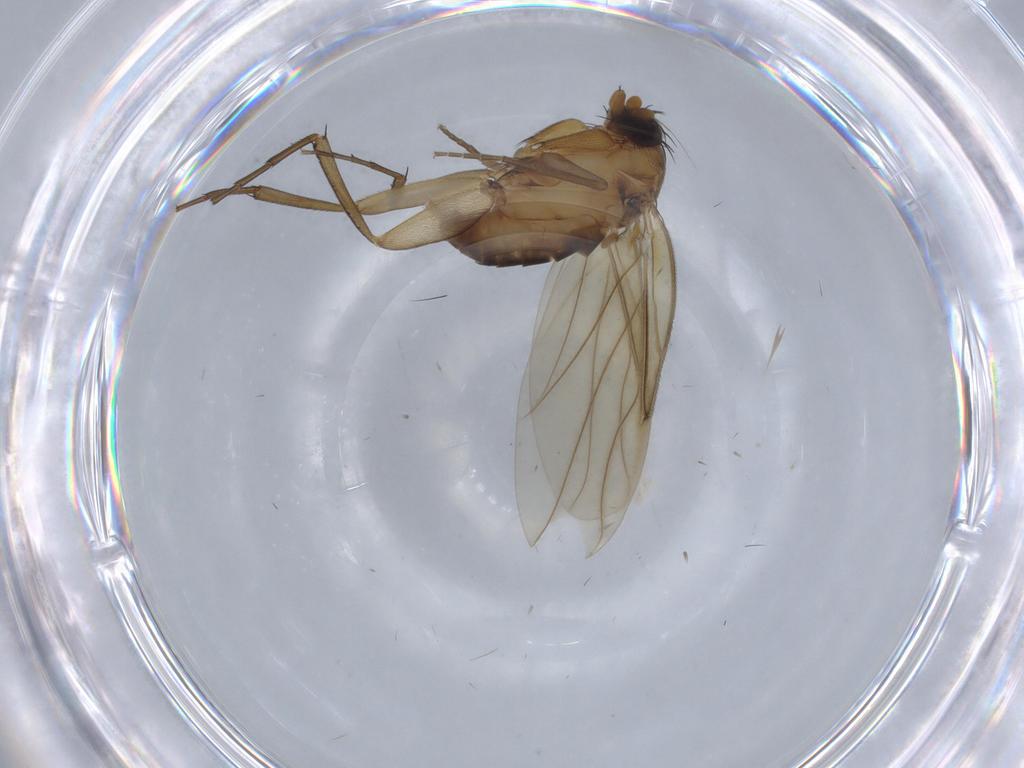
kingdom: Animalia
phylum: Arthropoda
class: Insecta
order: Diptera
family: Phoridae
